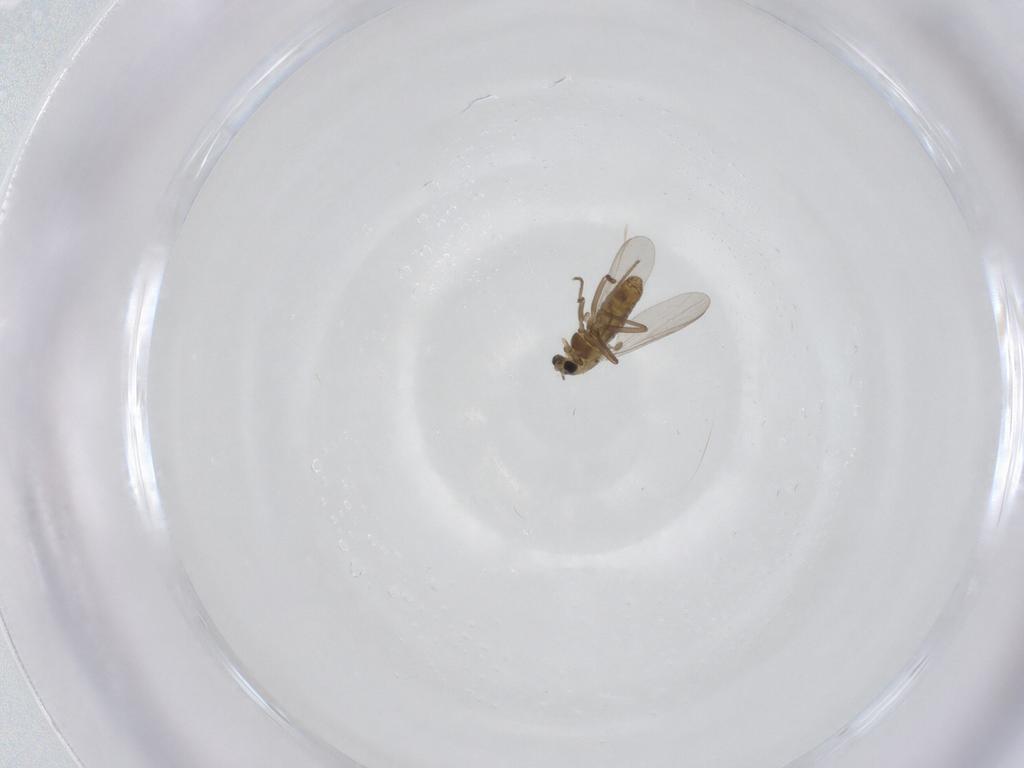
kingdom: Animalia
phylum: Arthropoda
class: Insecta
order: Diptera
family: Chironomidae
